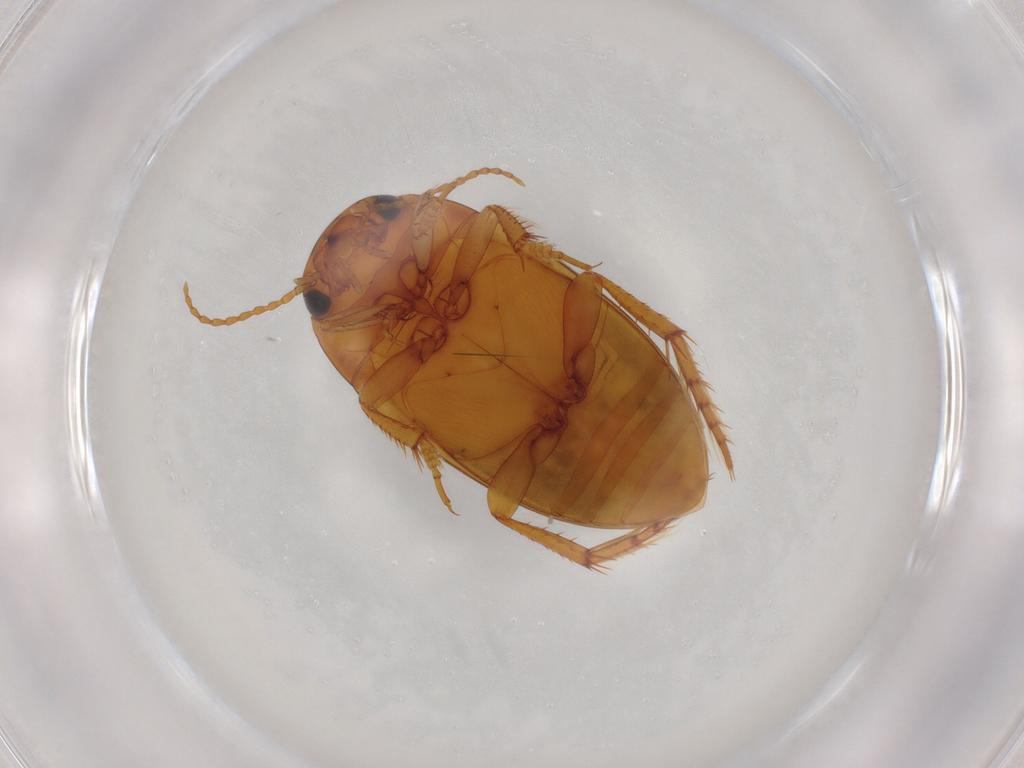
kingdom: Animalia
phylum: Arthropoda
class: Insecta
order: Coleoptera
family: Dytiscidae
